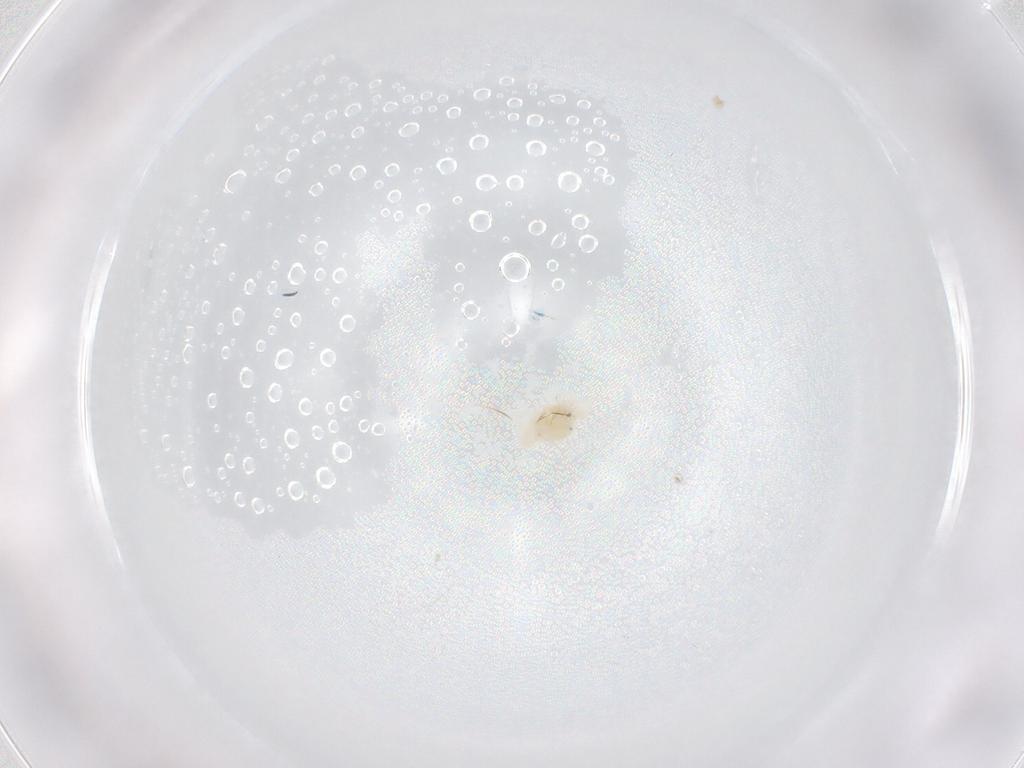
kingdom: Animalia
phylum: Arthropoda
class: Arachnida
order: Trombidiformes
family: Anystidae
